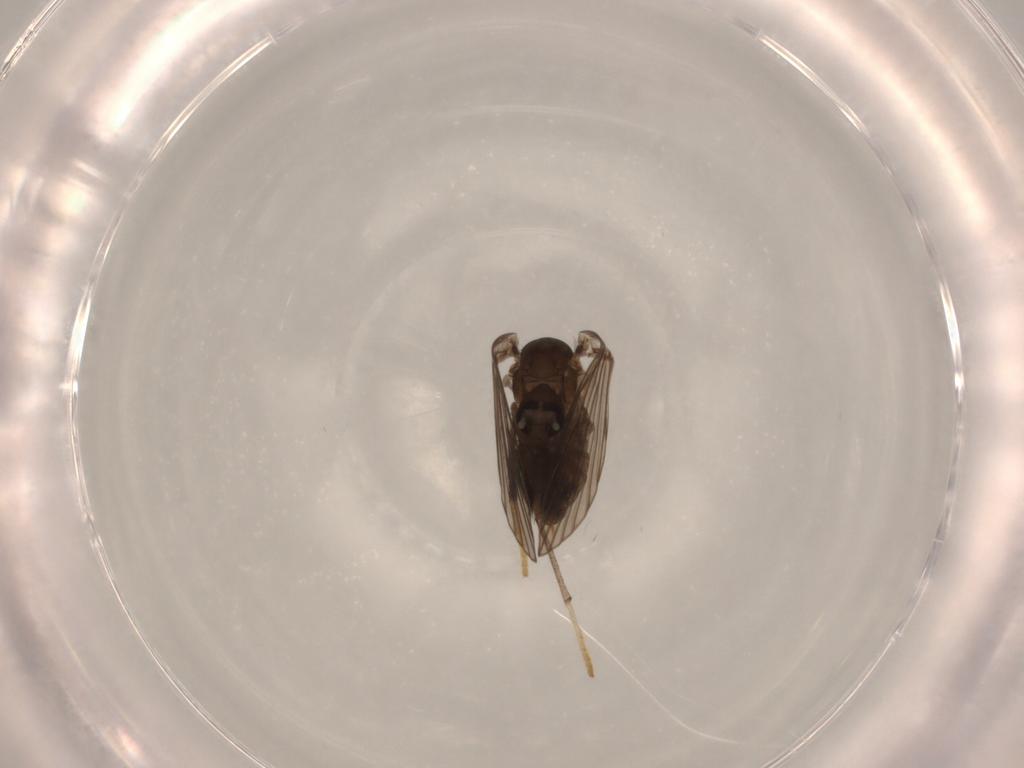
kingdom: Animalia
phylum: Arthropoda
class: Insecta
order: Diptera
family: Psychodidae
